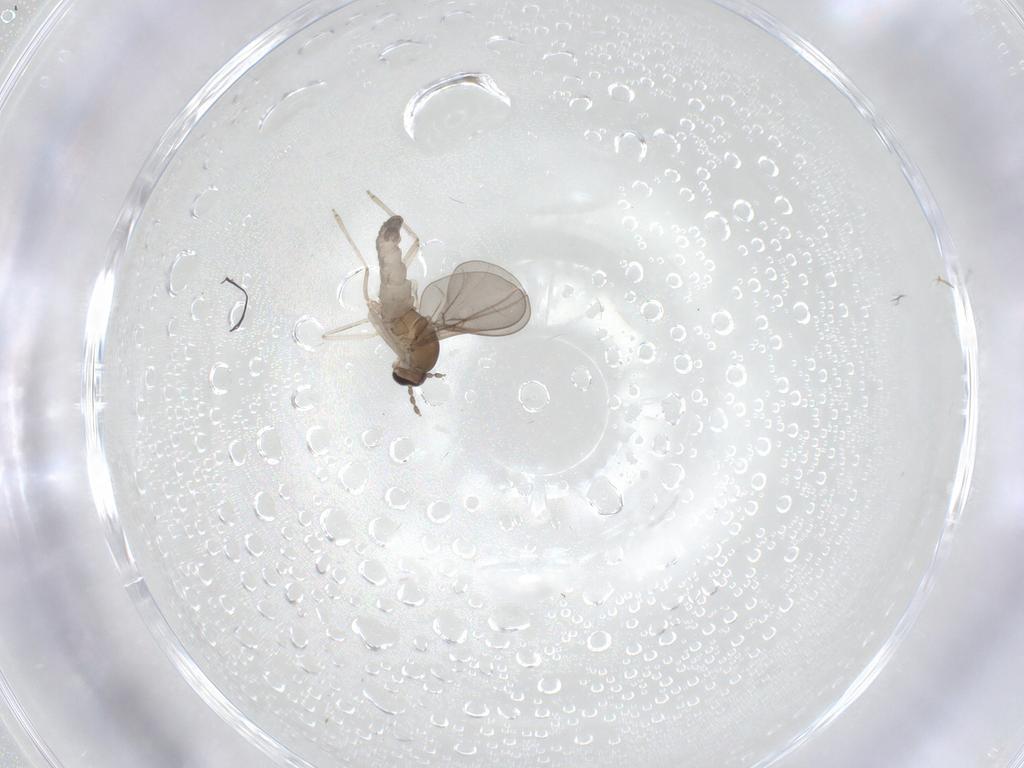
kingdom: Animalia
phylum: Arthropoda
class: Insecta
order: Diptera
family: Cecidomyiidae
